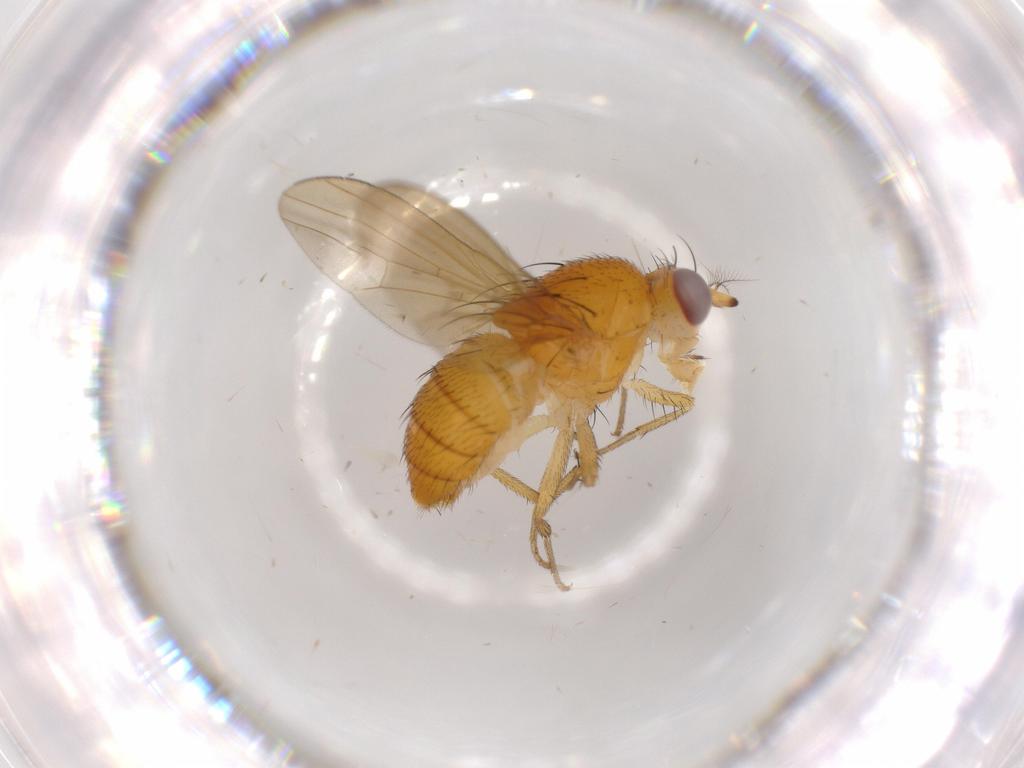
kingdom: Animalia
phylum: Arthropoda
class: Insecta
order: Diptera
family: Lauxaniidae
